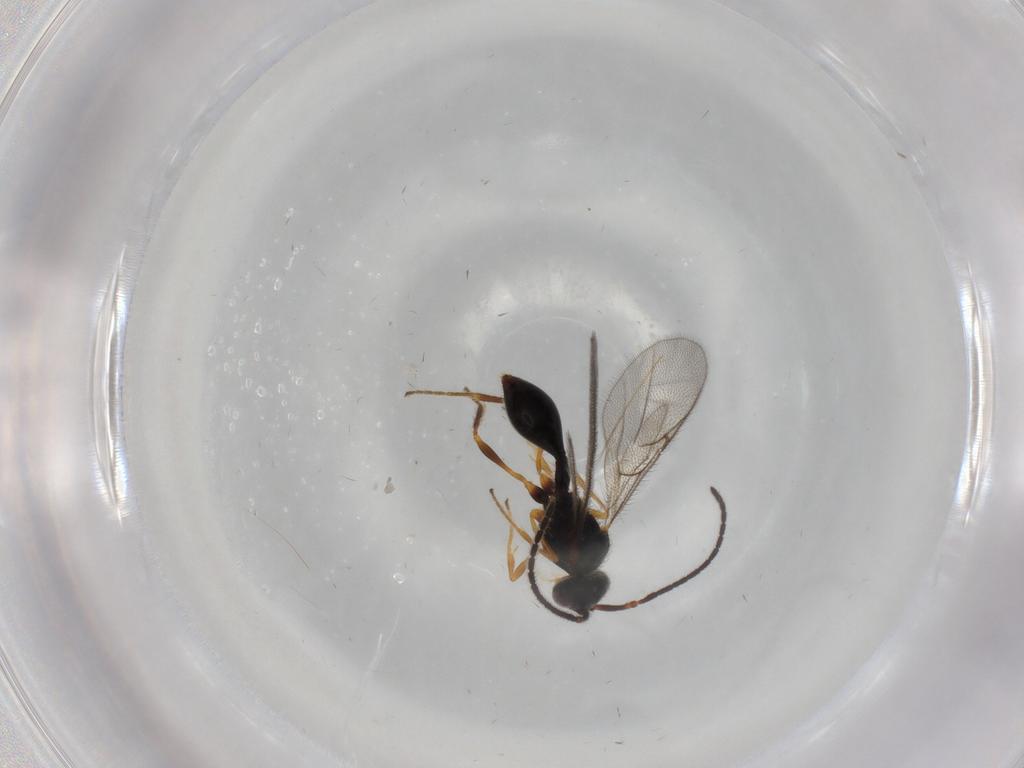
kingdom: Animalia
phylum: Arthropoda
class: Insecta
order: Hymenoptera
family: Diapriidae
